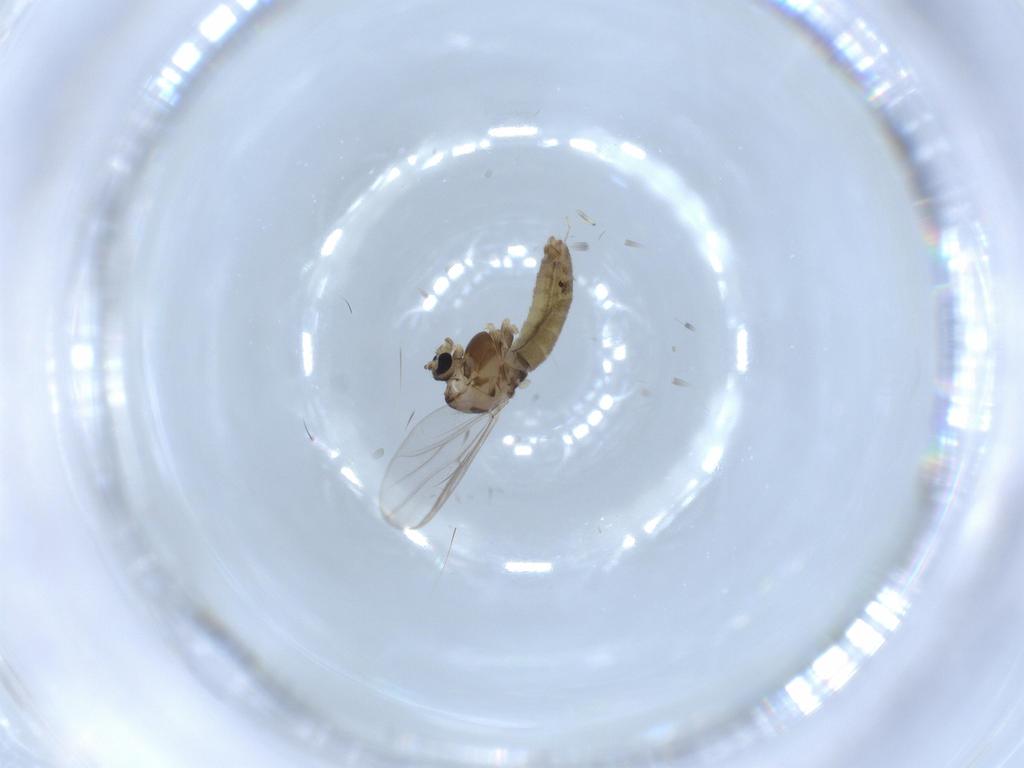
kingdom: Animalia
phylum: Arthropoda
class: Insecta
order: Diptera
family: Chironomidae
